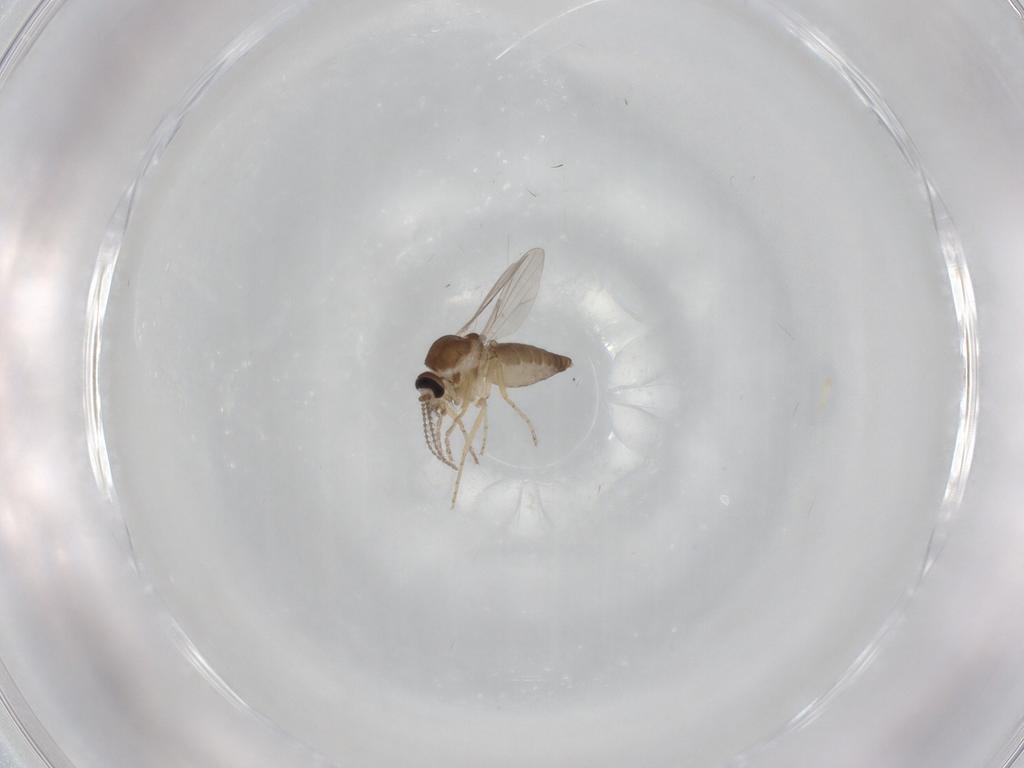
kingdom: Animalia
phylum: Arthropoda
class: Insecta
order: Diptera
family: Ceratopogonidae
